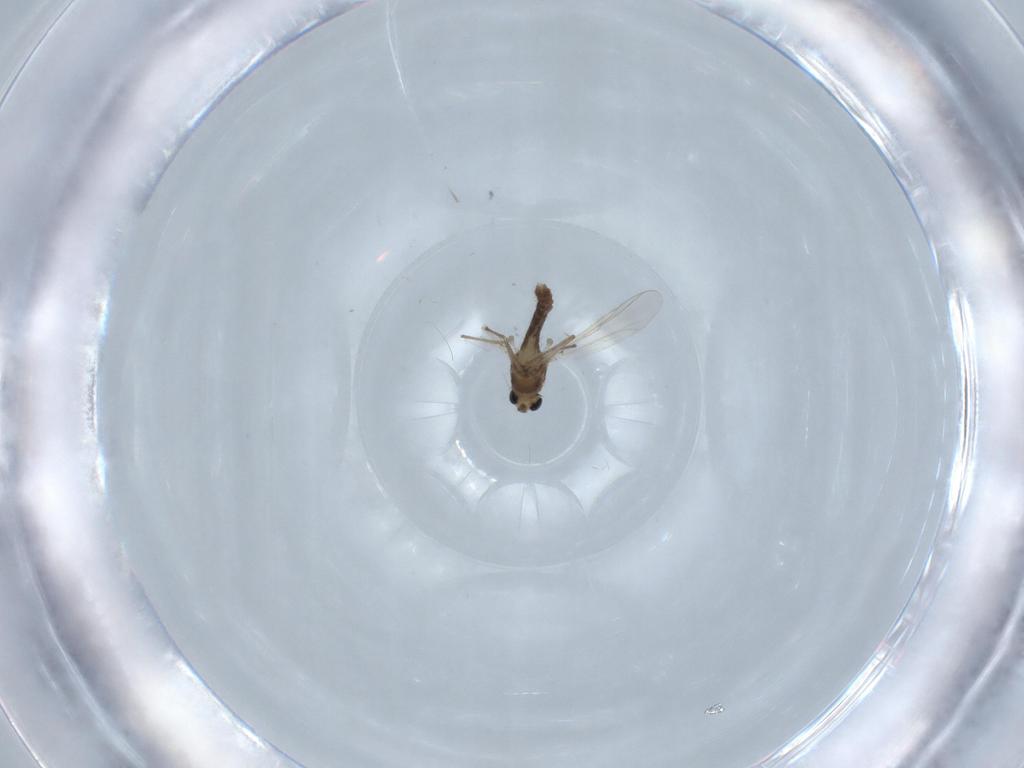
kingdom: Animalia
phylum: Arthropoda
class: Insecta
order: Diptera
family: Chironomidae
